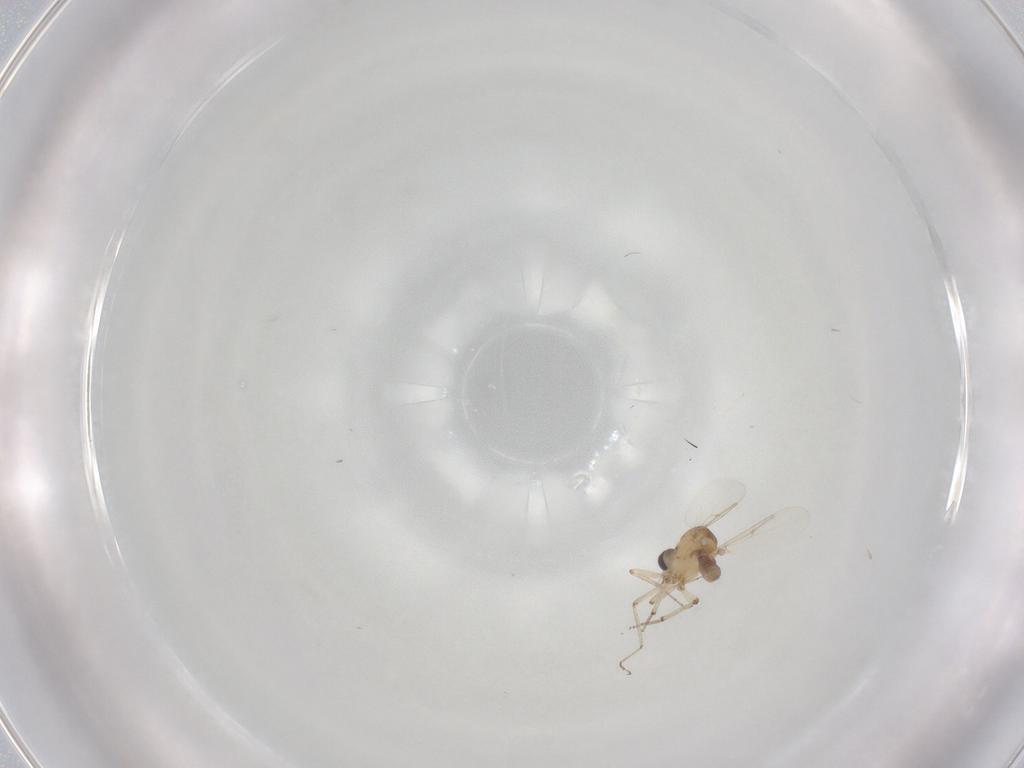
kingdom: Animalia
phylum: Arthropoda
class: Insecta
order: Diptera
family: Ceratopogonidae
